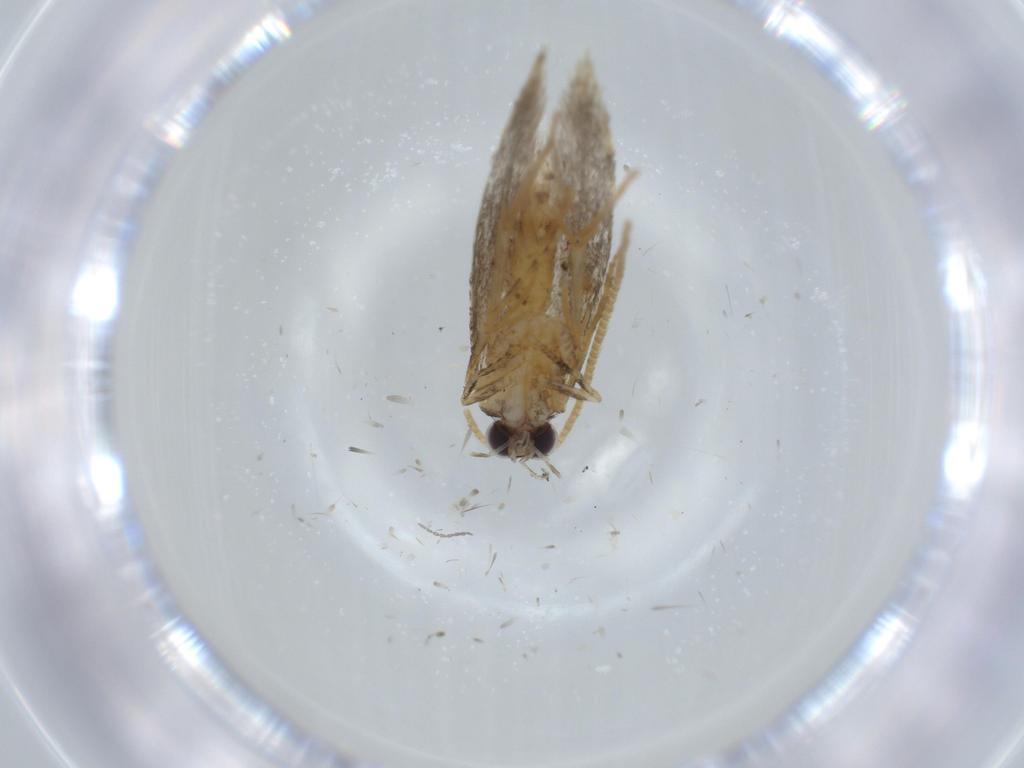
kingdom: Animalia
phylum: Arthropoda
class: Insecta
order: Lepidoptera
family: Tineidae
